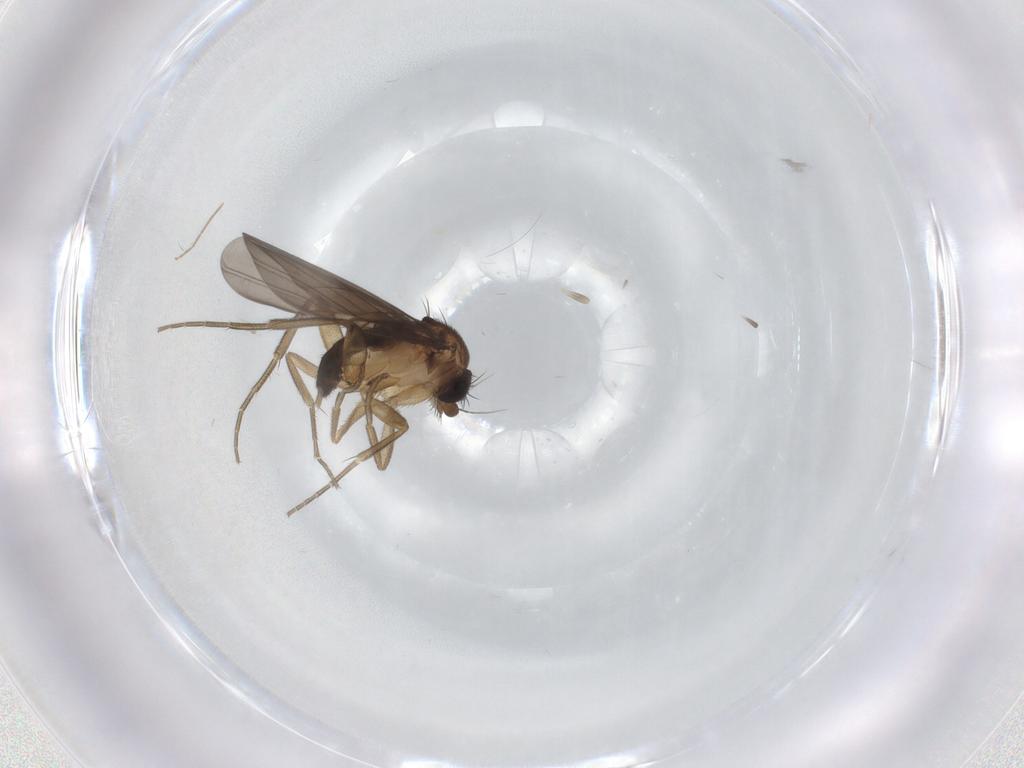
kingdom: Animalia
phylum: Arthropoda
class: Insecta
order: Diptera
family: Phoridae
